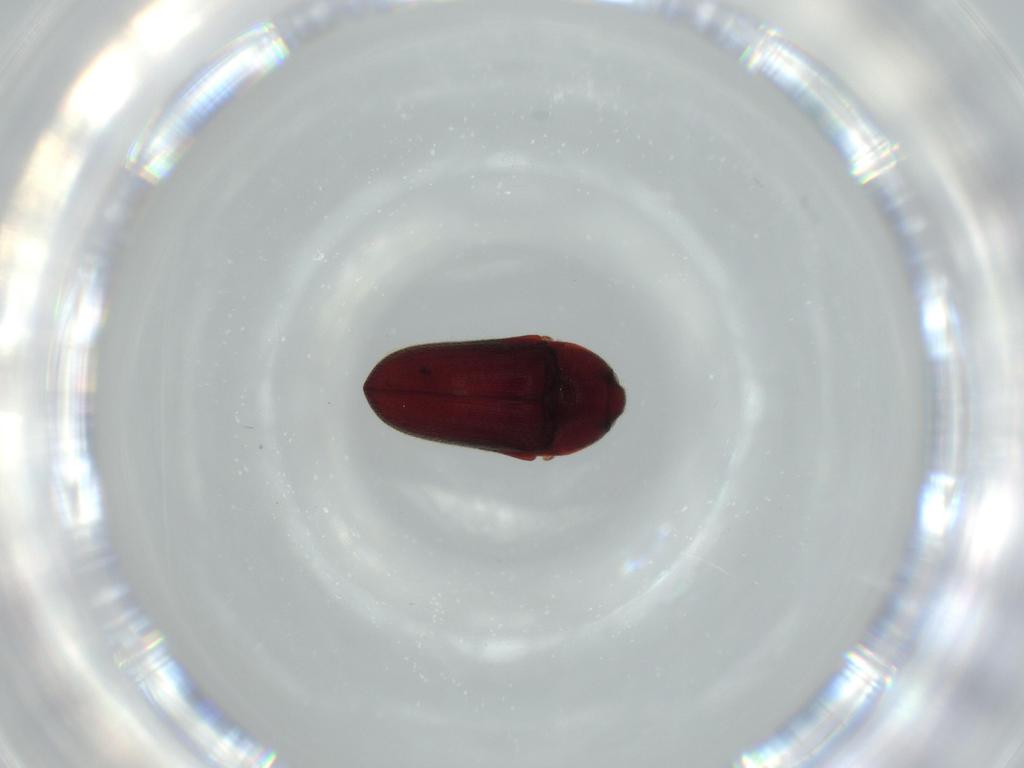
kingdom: Animalia
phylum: Arthropoda
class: Insecta
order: Coleoptera
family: Throscidae
